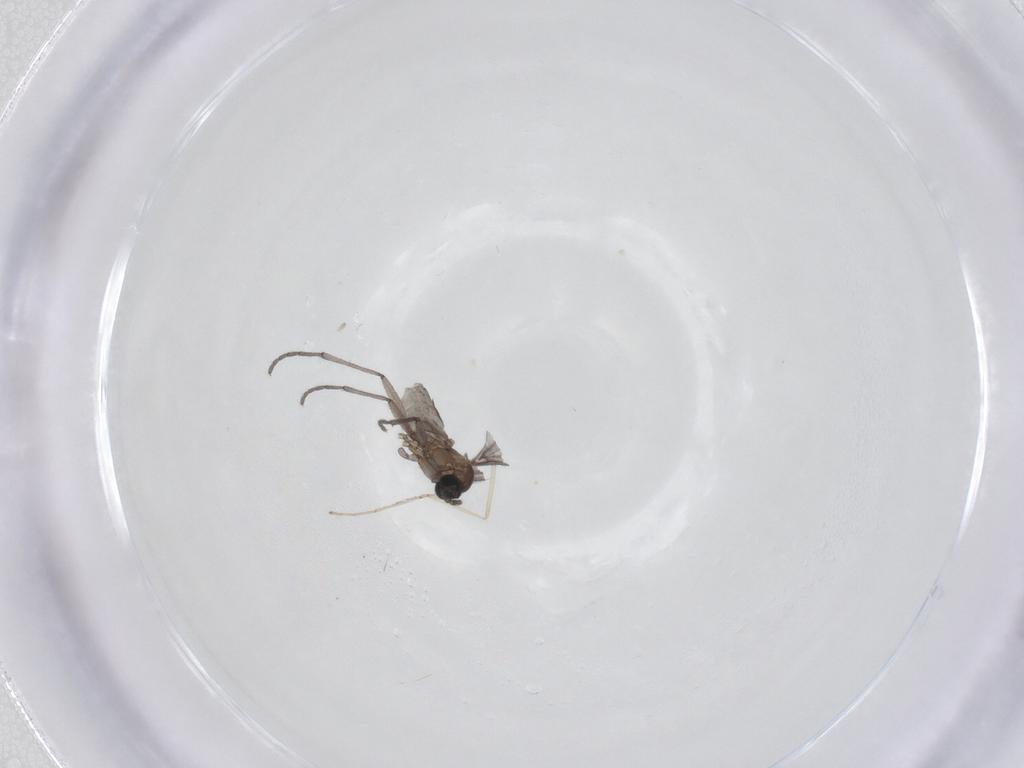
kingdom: Animalia
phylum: Arthropoda
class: Insecta
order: Diptera
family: Sciaridae
